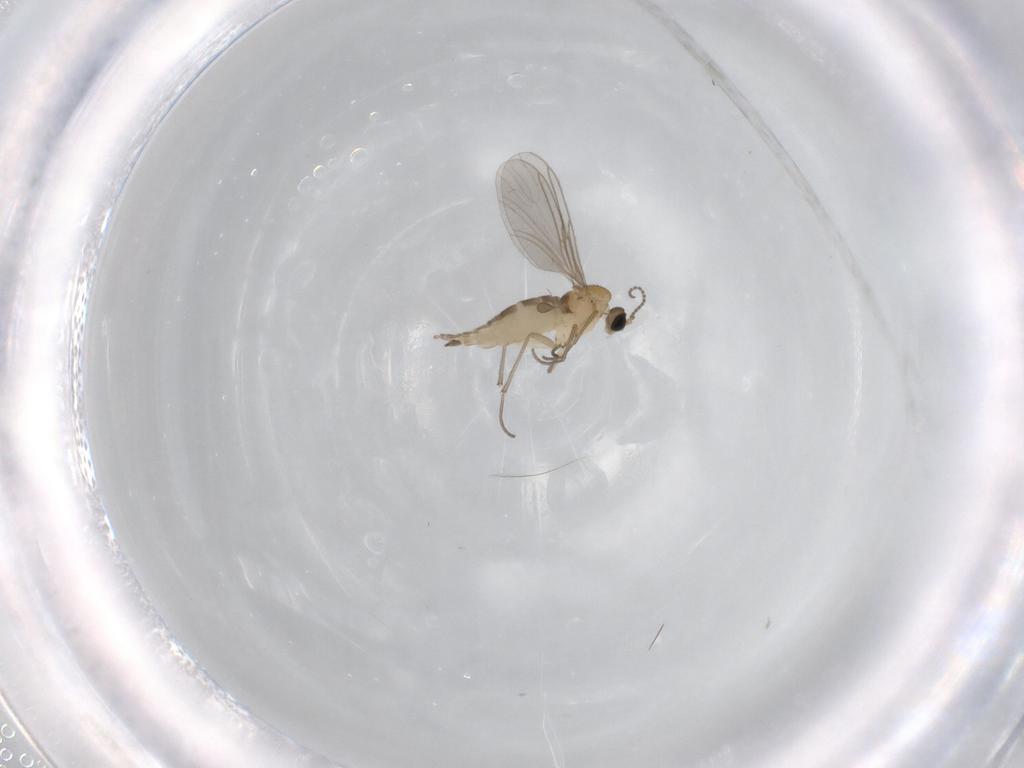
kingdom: Animalia
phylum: Arthropoda
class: Insecta
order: Diptera
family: Sciaridae
